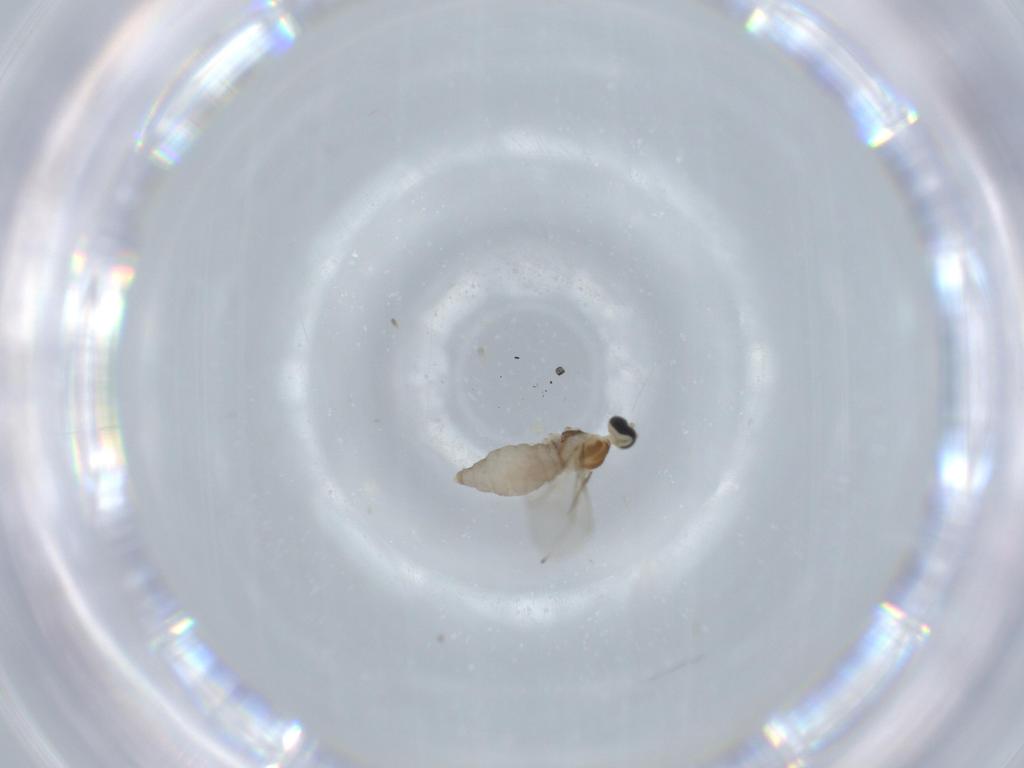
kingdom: Animalia
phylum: Arthropoda
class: Insecta
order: Diptera
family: Cecidomyiidae
